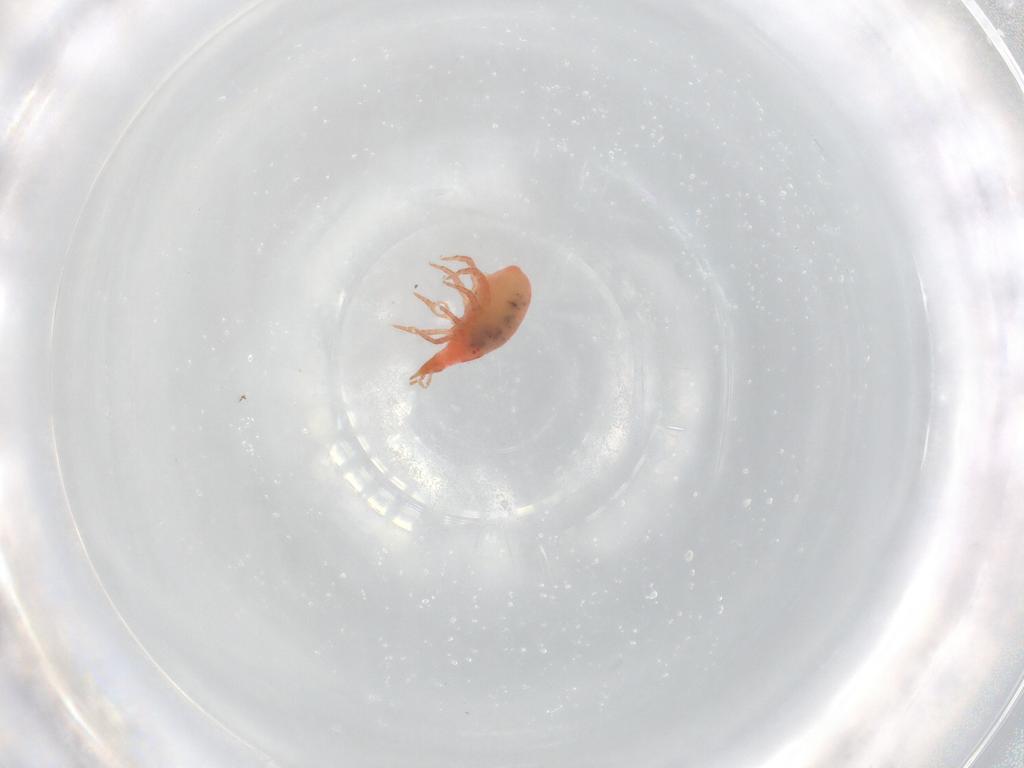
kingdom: Animalia
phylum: Arthropoda
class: Arachnida
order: Sarcoptiformes
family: Eremaeidae
